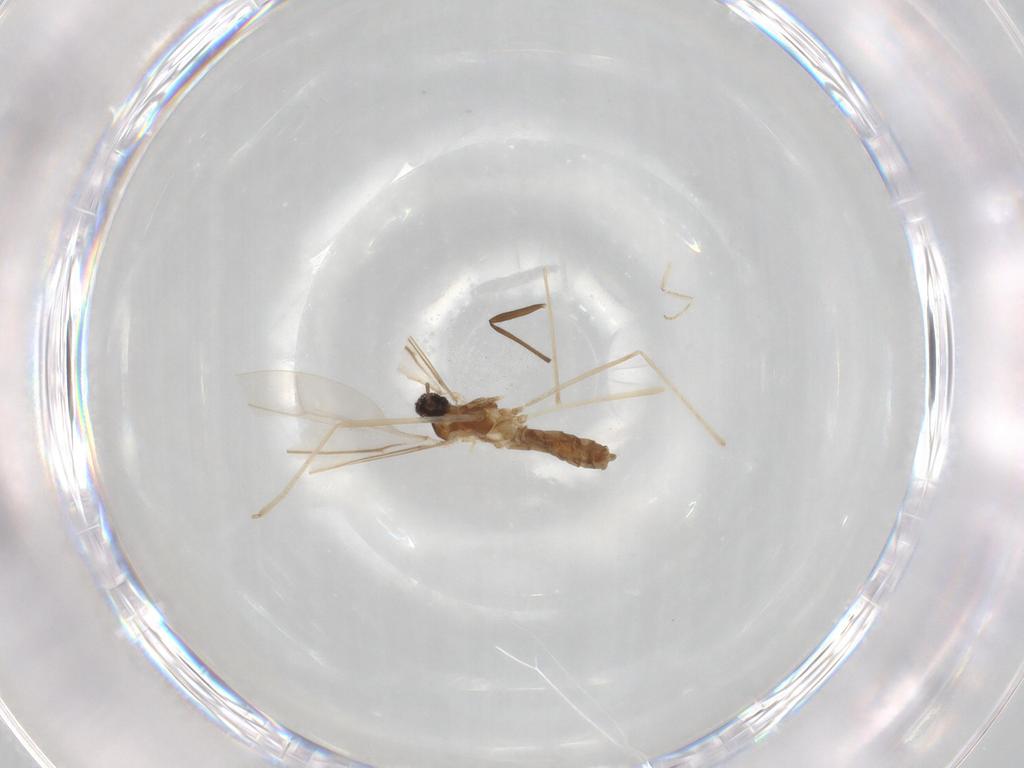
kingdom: Animalia
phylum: Arthropoda
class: Insecta
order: Diptera
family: Cecidomyiidae
